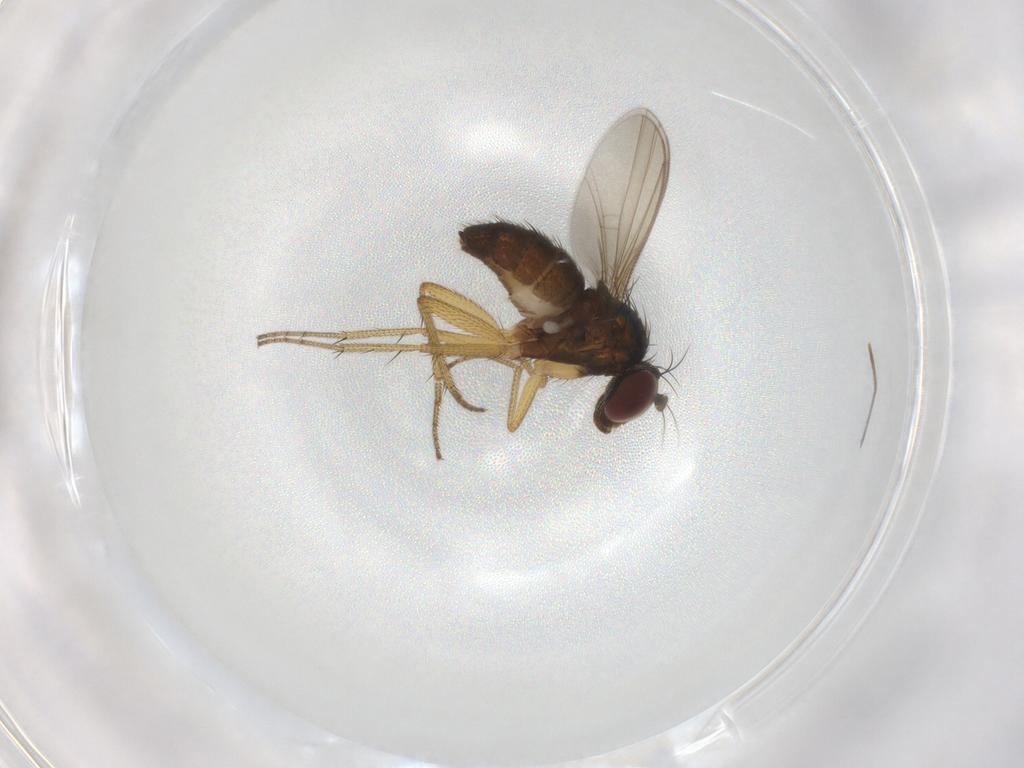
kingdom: Animalia
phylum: Arthropoda
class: Insecta
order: Diptera
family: Dolichopodidae
